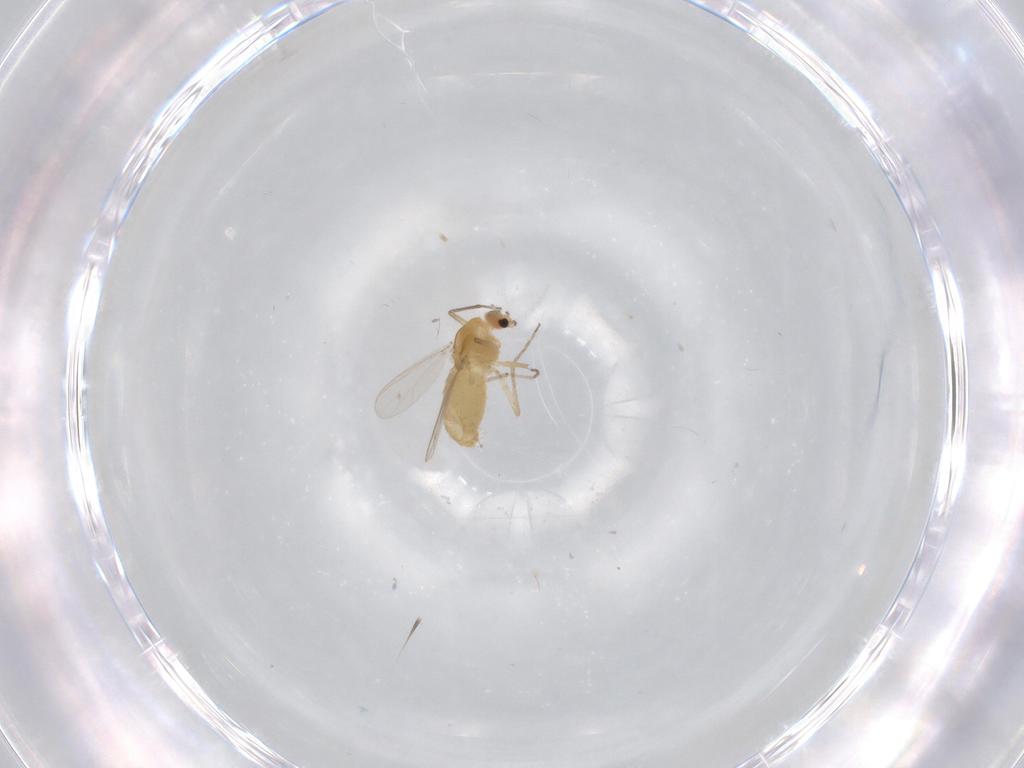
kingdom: Animalia
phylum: Arthropoda
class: Insecta
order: Diptera
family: Chironomidae
